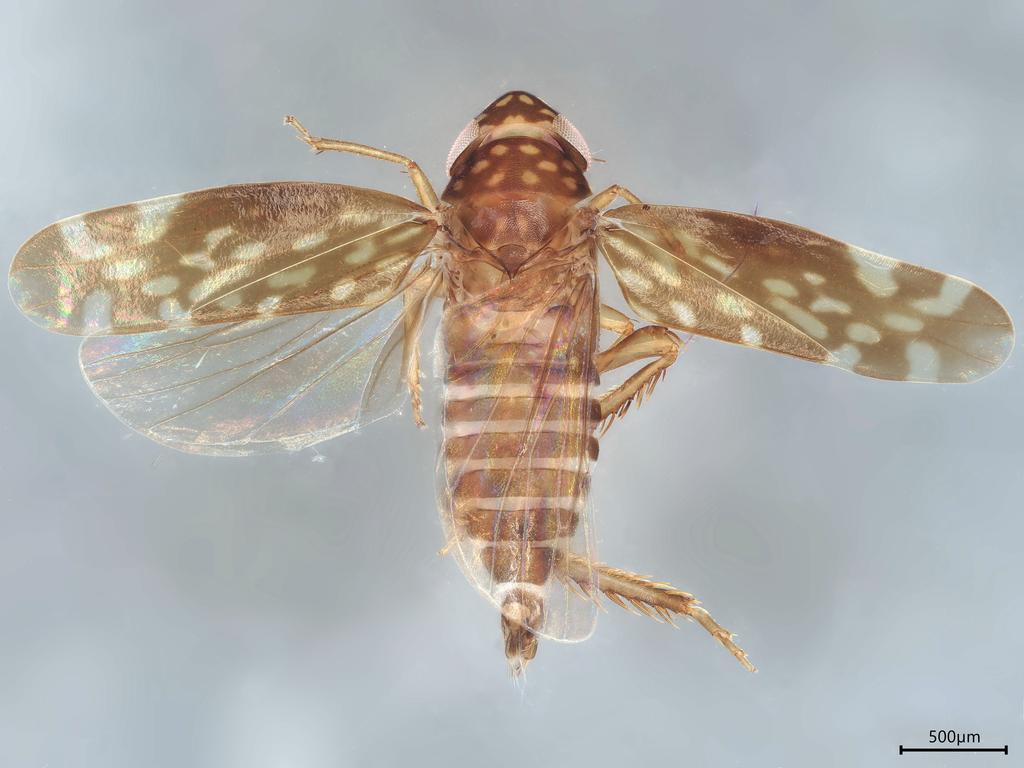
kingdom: Animalia
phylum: Arthropoda
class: Insecta
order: Hemiptera
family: Cicadellidae
